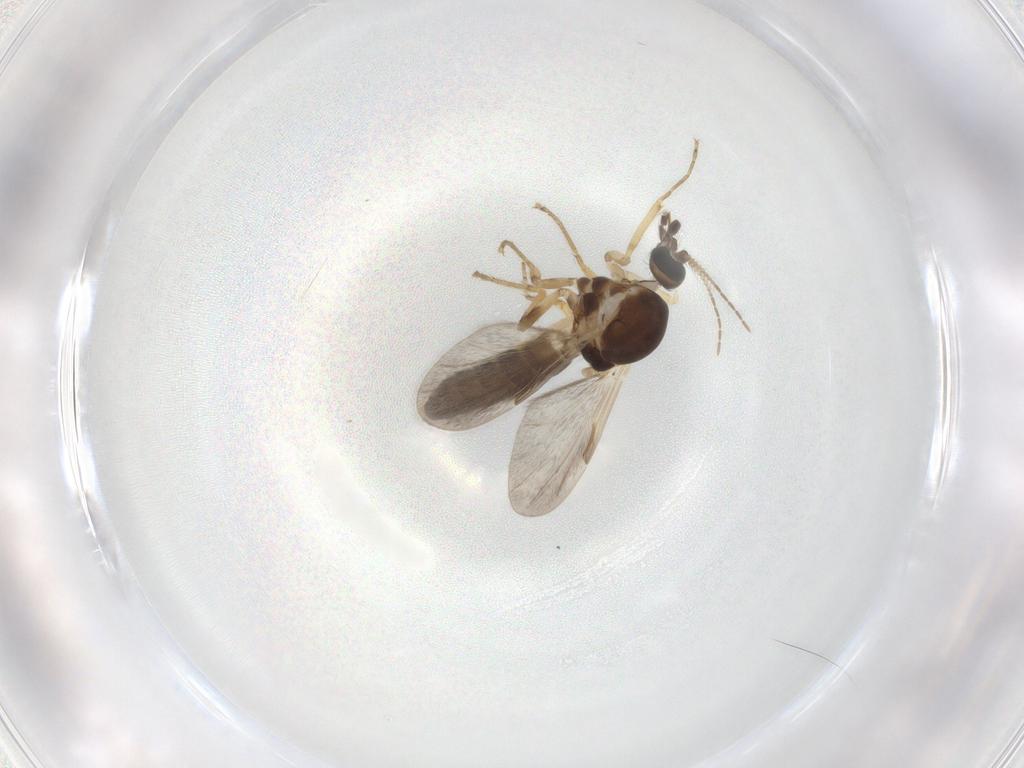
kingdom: Animalia
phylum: Arthropoda
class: Insecta
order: Diptera
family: Ceratopogonidae
